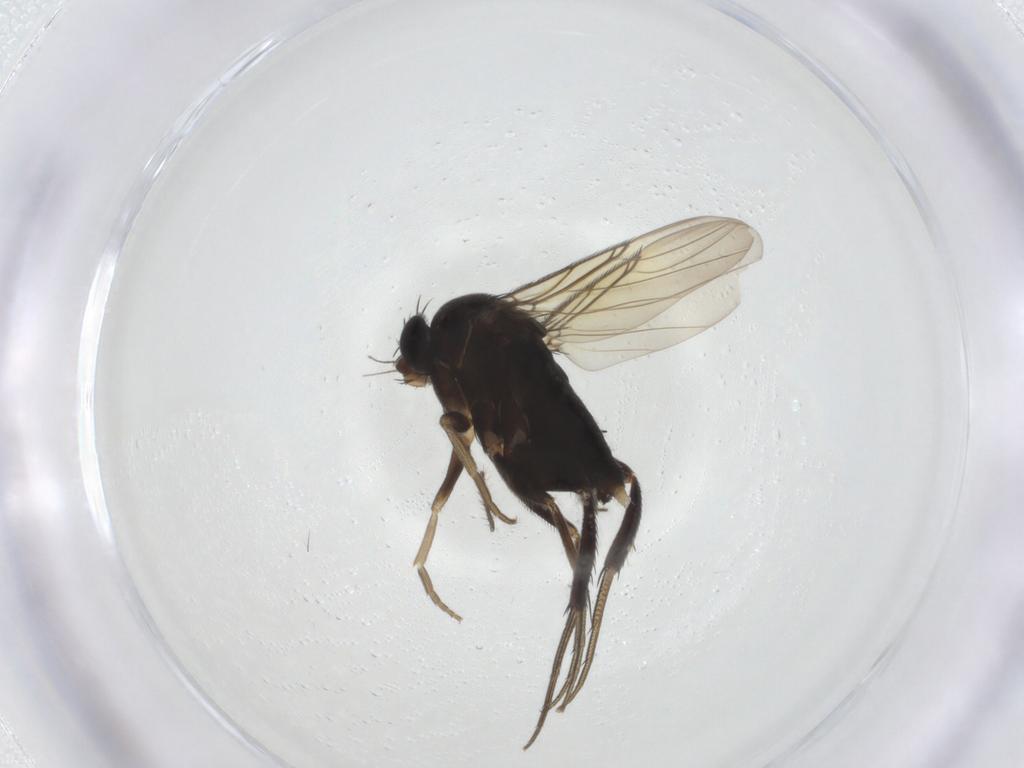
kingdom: Animalia
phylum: Arthropoda
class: Insecta
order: Diptera
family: Phoridae
